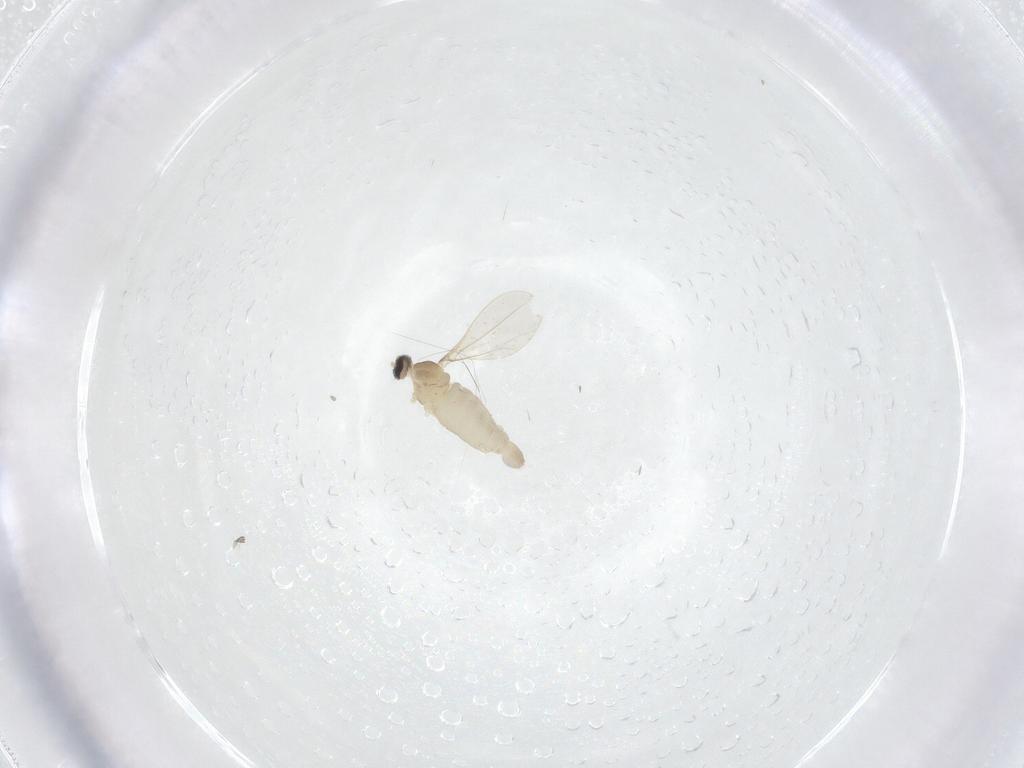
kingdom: Animalia
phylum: Arthropoda
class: Insecta
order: Diptera
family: Cecidomyiidae
